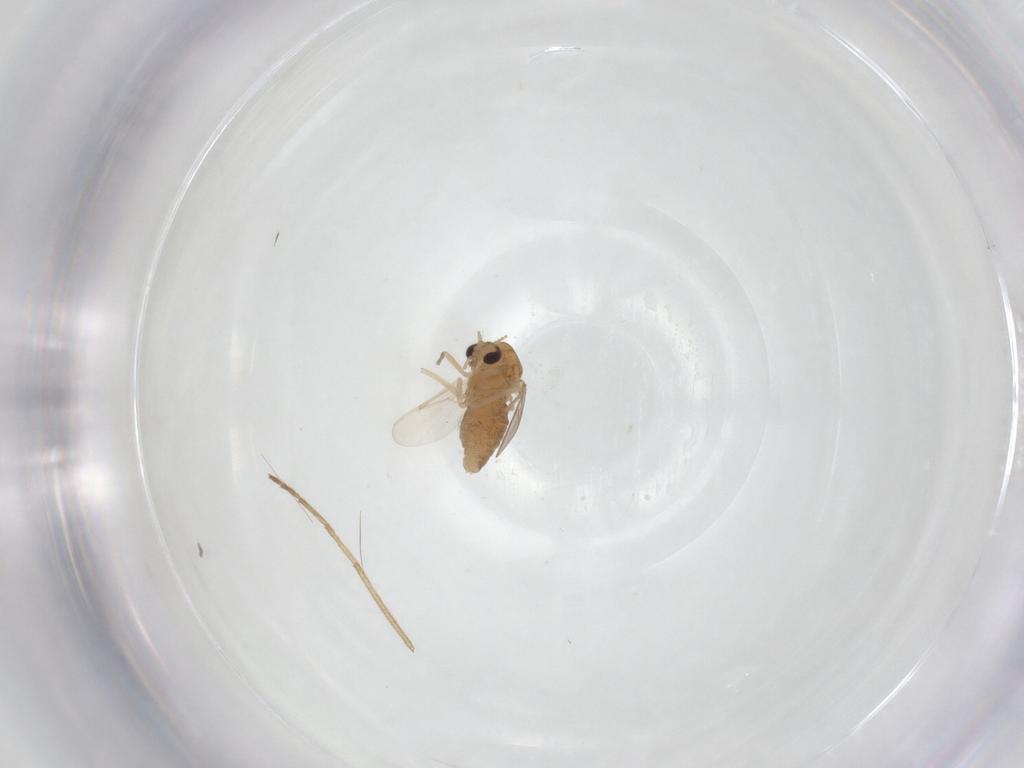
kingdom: Animalia
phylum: Arthropoda
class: Insecta
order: Diptera
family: Chironomidae
